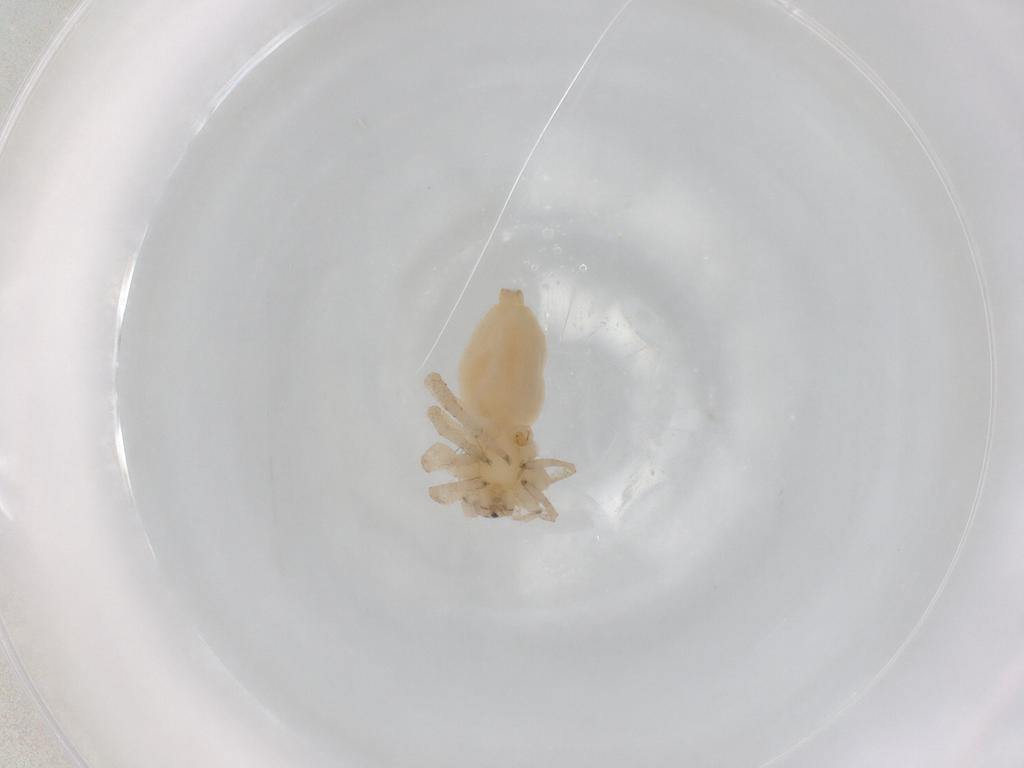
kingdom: Animalia
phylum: Arthropoda
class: Arachnida
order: Araneae
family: Clubionidae
